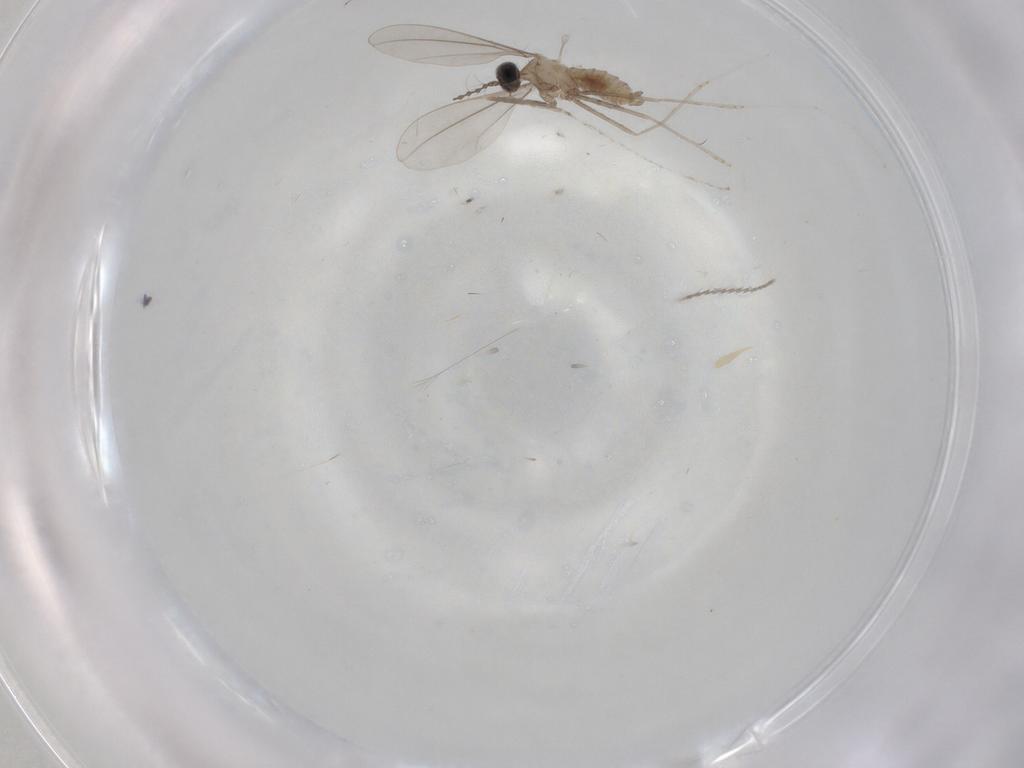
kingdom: Animalia
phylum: Arthropoda
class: Insecta
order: Diptera
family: Cecidomyiidae
